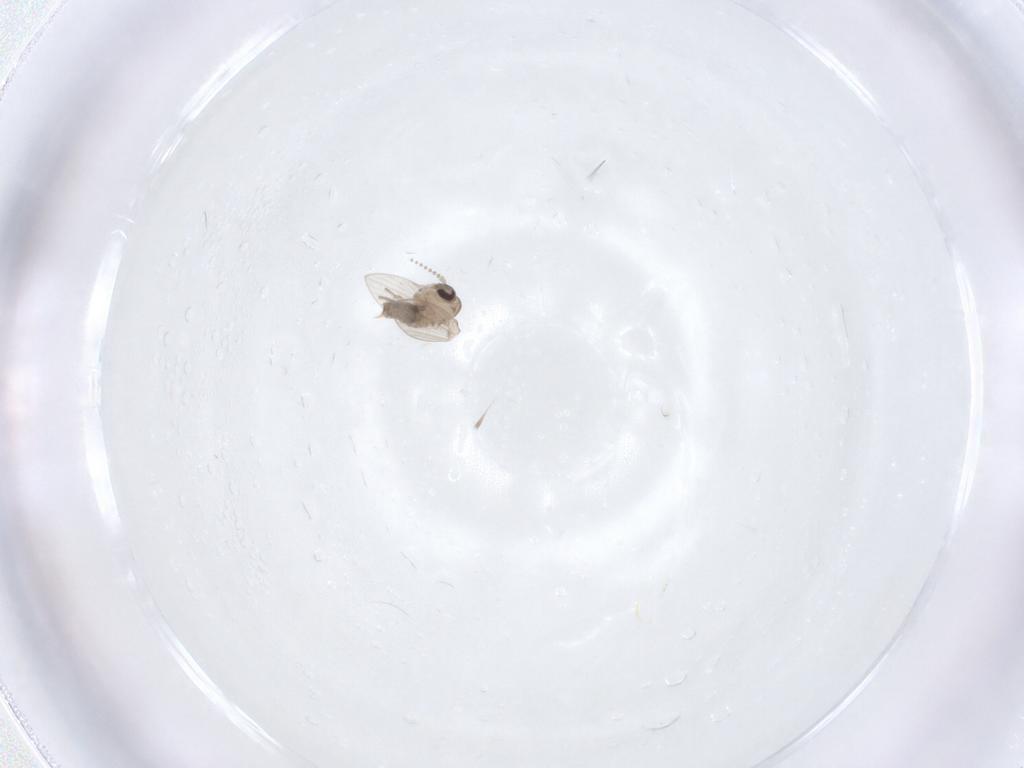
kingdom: Animalia
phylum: Arthropoda
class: Insecta
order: Diptera
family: Psychodidae
